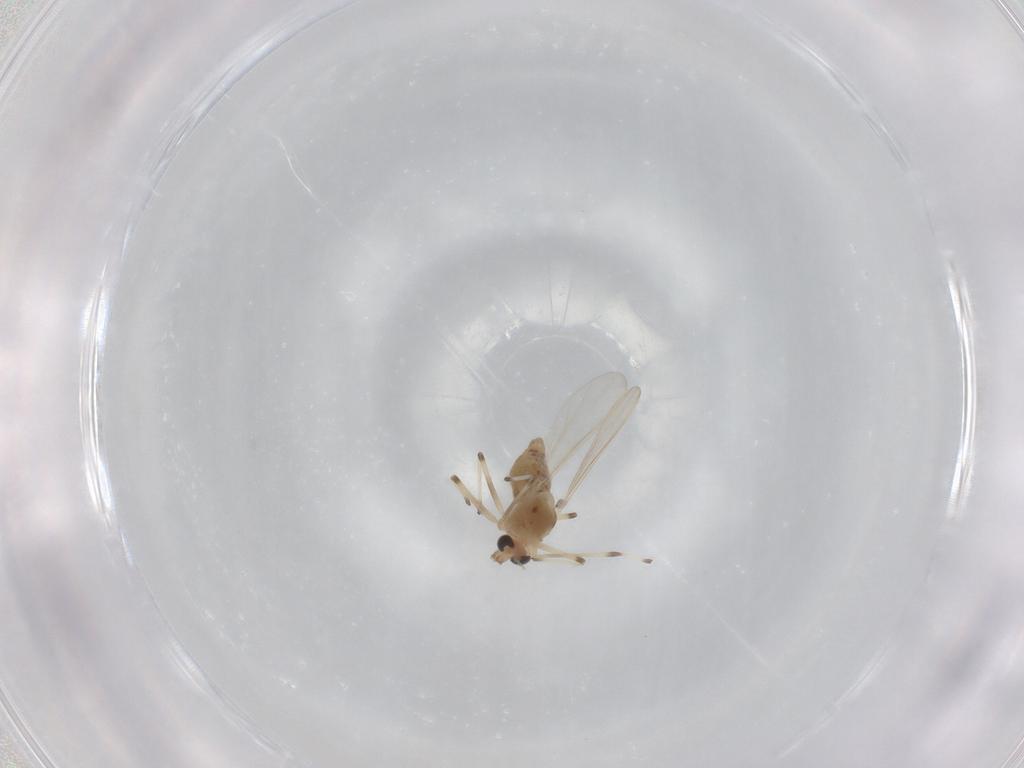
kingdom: Animalia
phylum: Arthropoda
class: Insecta
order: Diptera
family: Chironomidae
